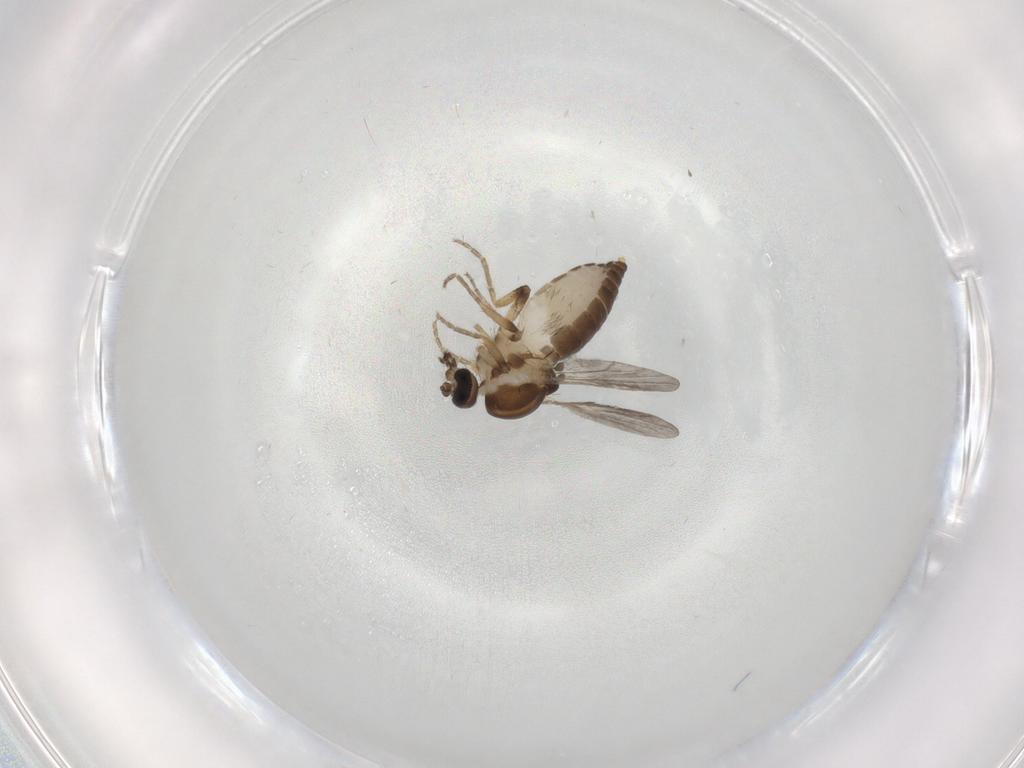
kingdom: Animalia
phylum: Arthropoda
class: Insecta
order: Diptera
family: Ceratopogonidae
